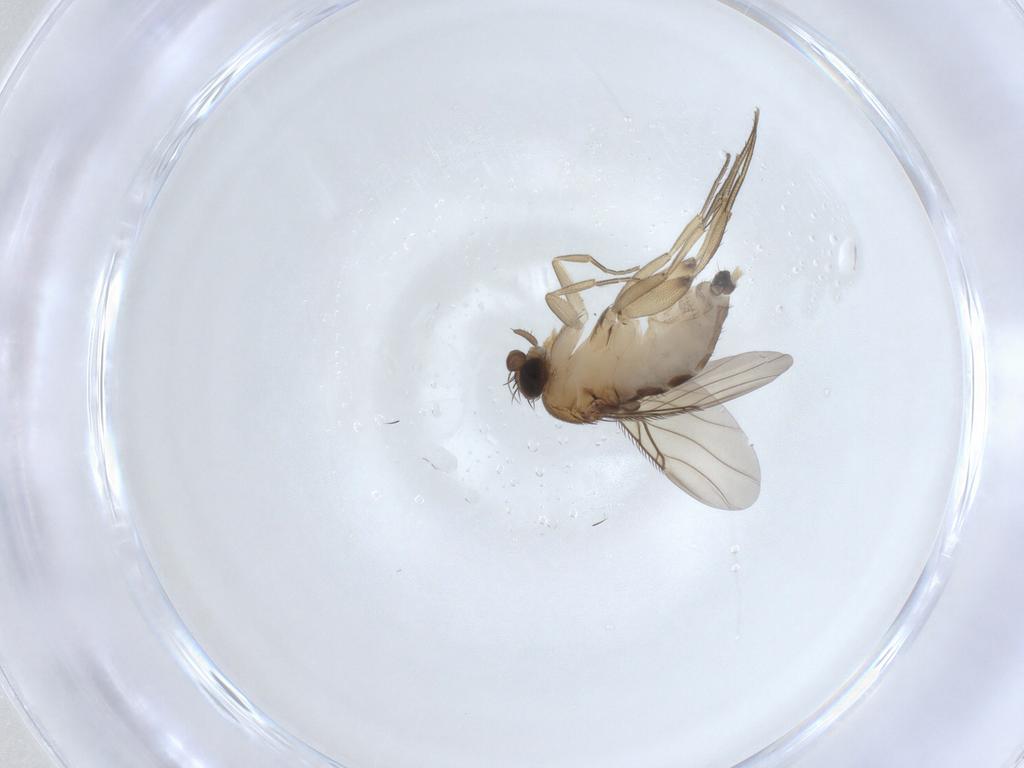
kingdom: Animalia
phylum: Arthropoda
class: Insecta
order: Diptera
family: Phoridae
